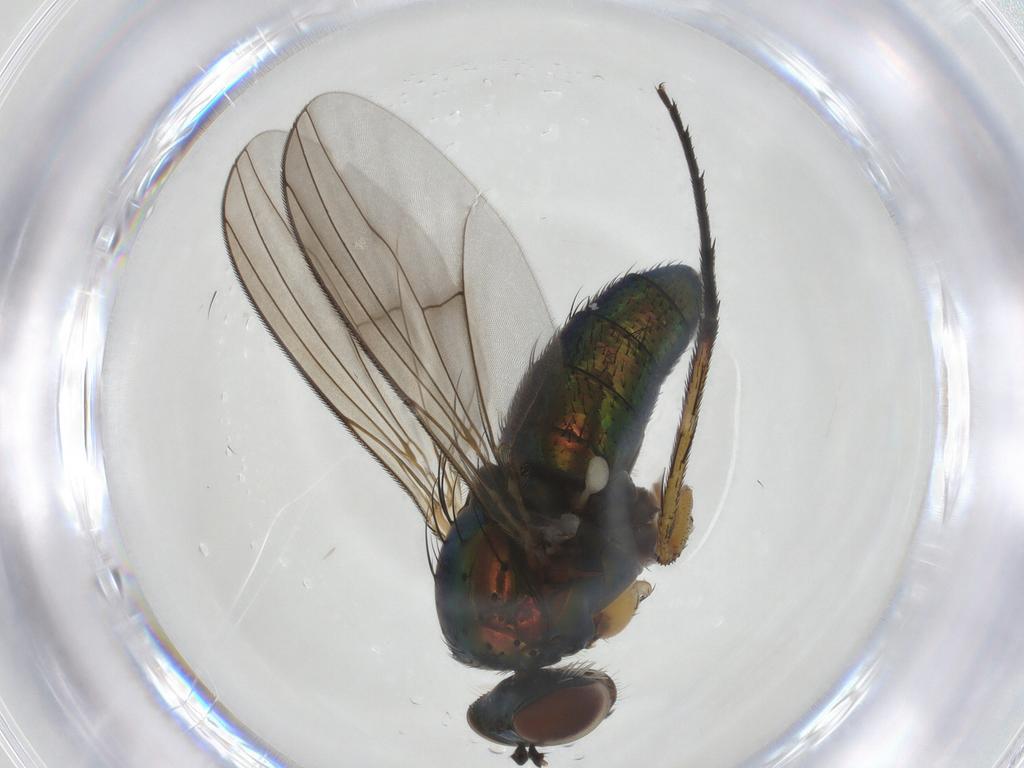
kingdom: Animalia
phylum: Arthropoda
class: Insecta
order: Diptera
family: Dolichopodidae
